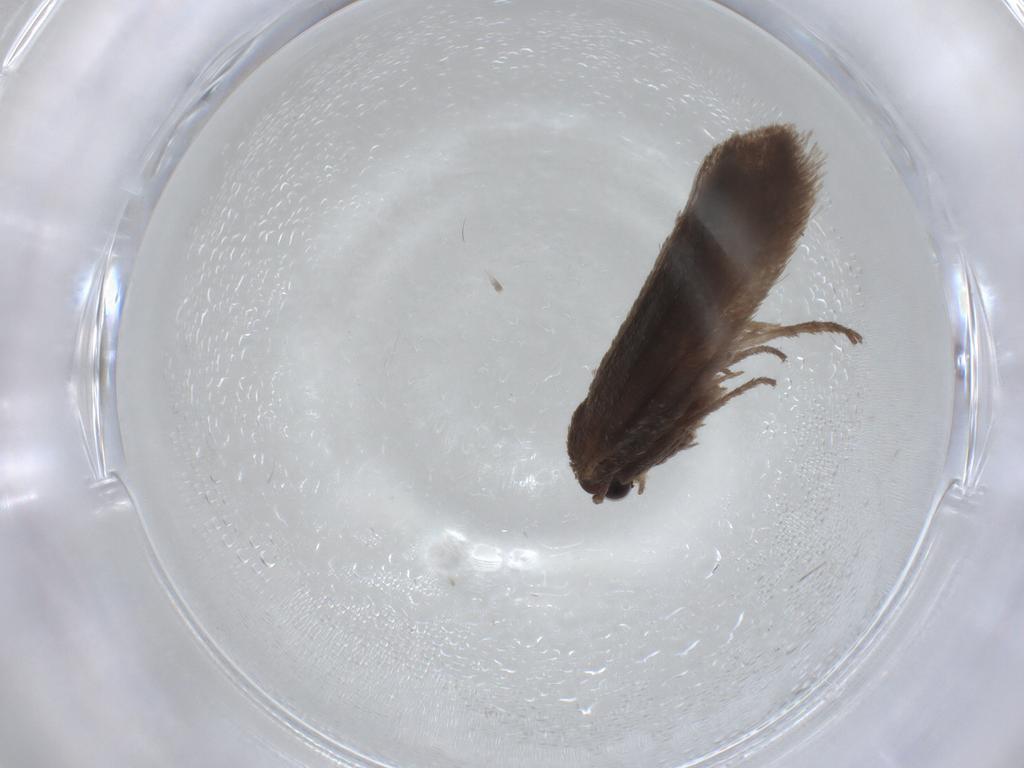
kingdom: Animalia
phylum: Arthropoda
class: Insecta
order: Lepidoptera
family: Limacodidae
